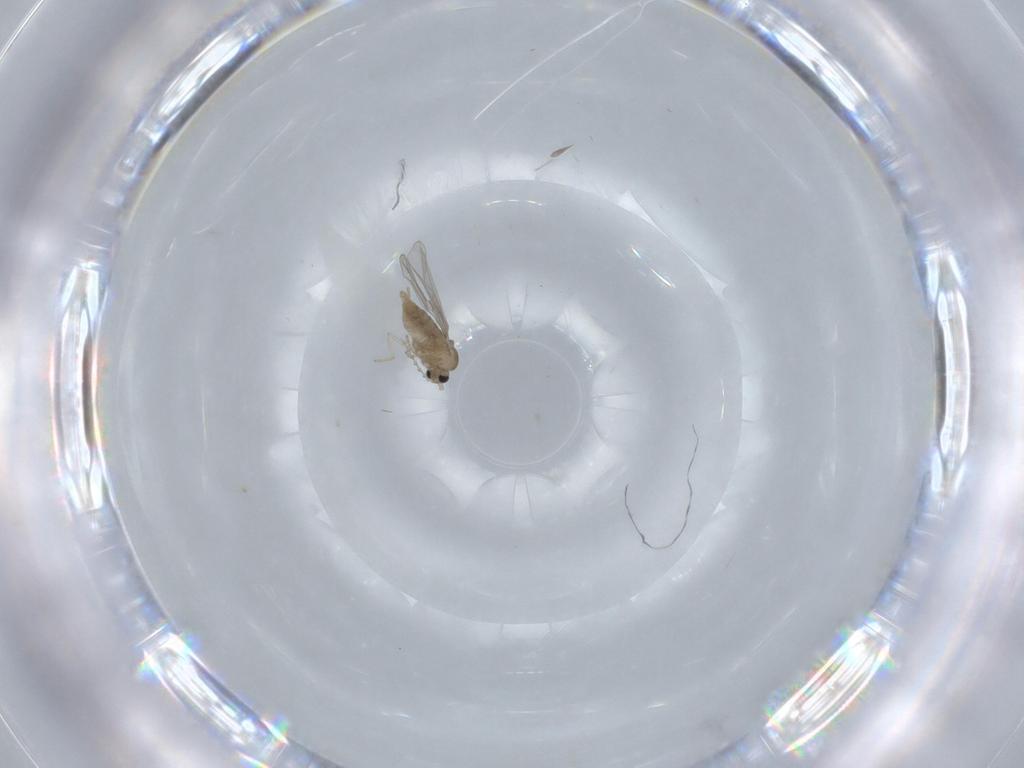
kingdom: Animalia
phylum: Arthropoda
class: Insecta
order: Diptera
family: Cecidomyiidae
